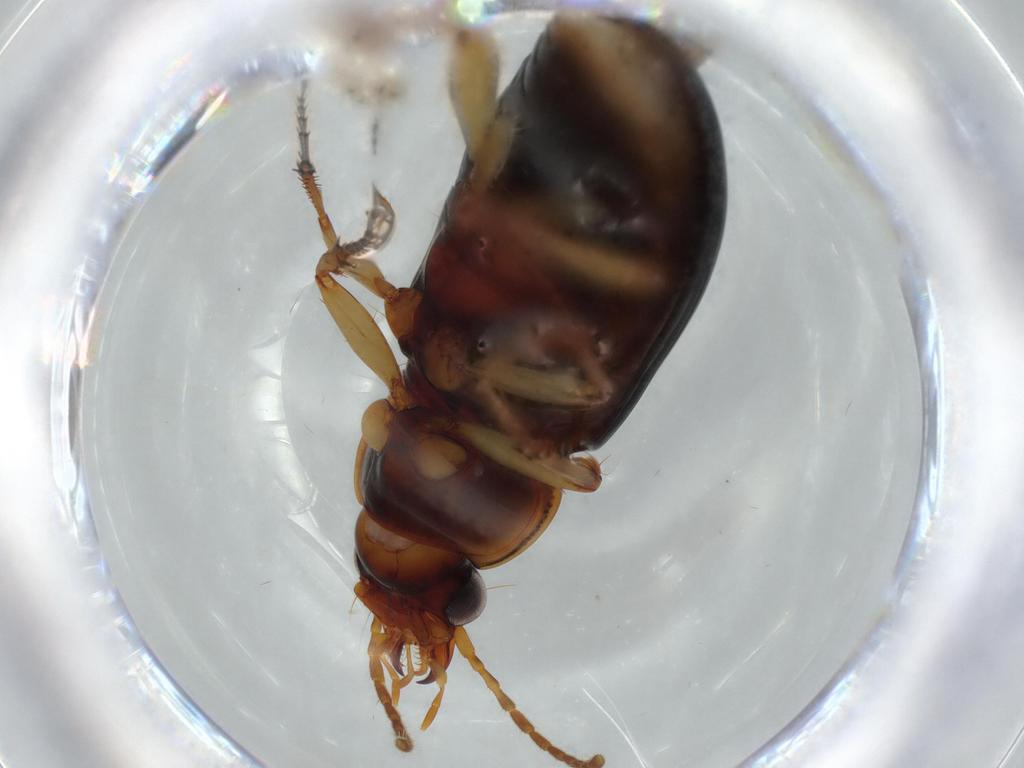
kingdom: Animalia
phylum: Arthropoda
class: Insecta
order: Coleoptera
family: Carabidae
